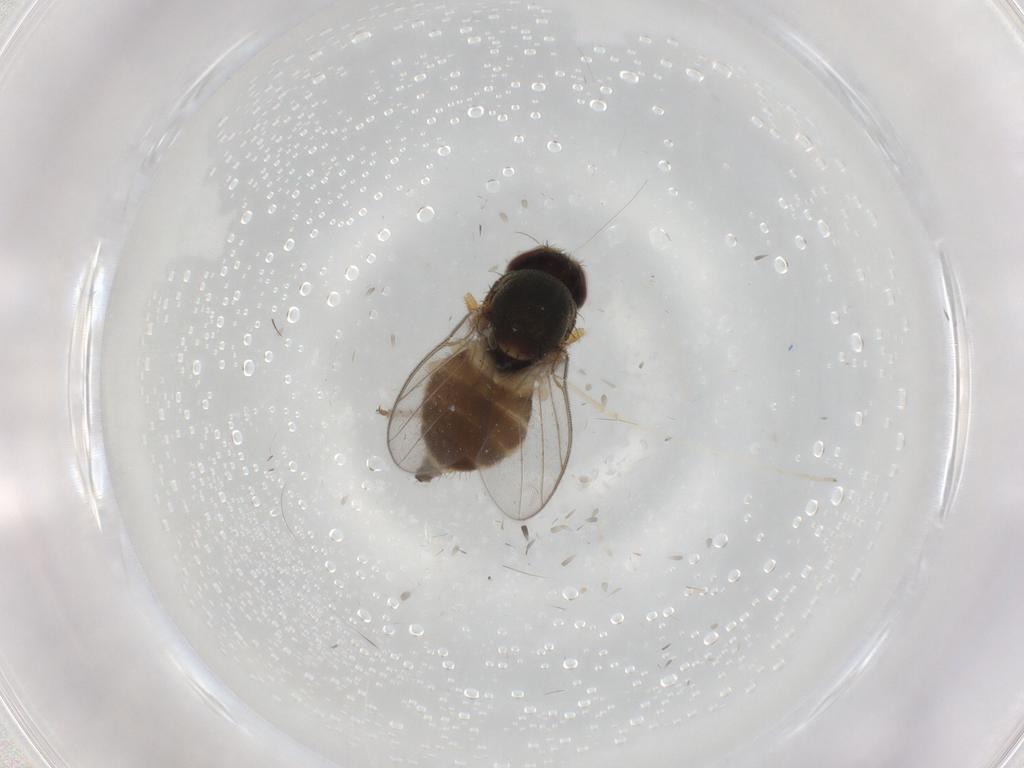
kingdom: Animalia
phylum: Arthropoda
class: Insecta
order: Diptera
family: Chloropidae
